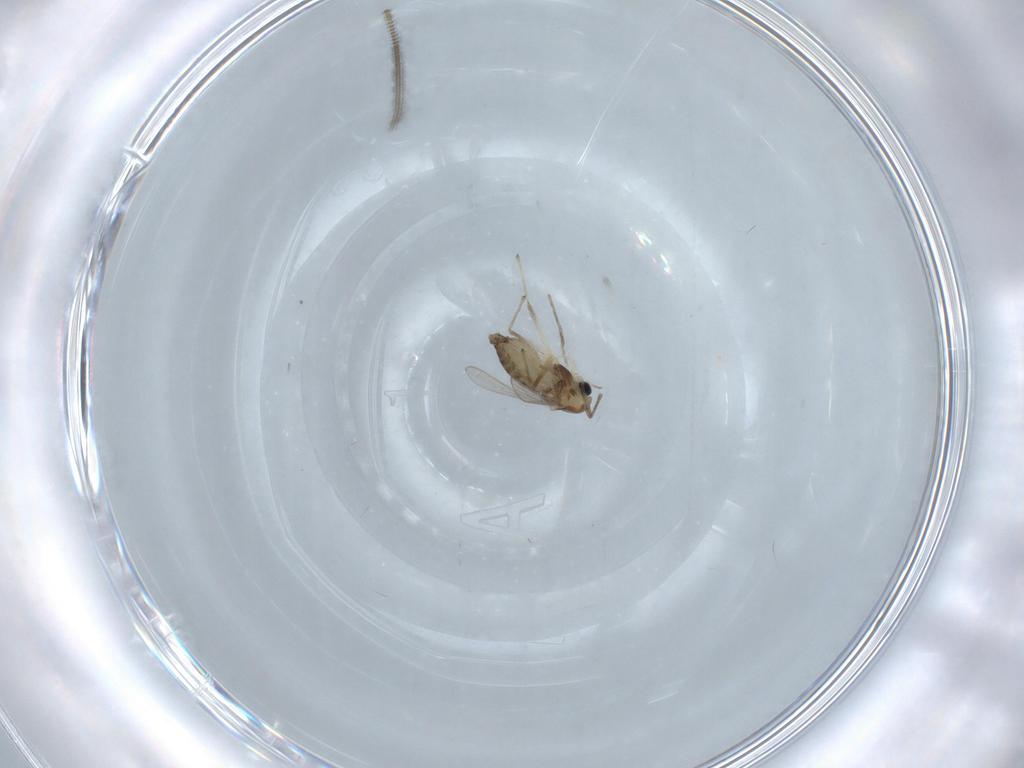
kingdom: Animalia
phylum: Arthropoda
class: Insecta
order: Diptera
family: Chironomidae
